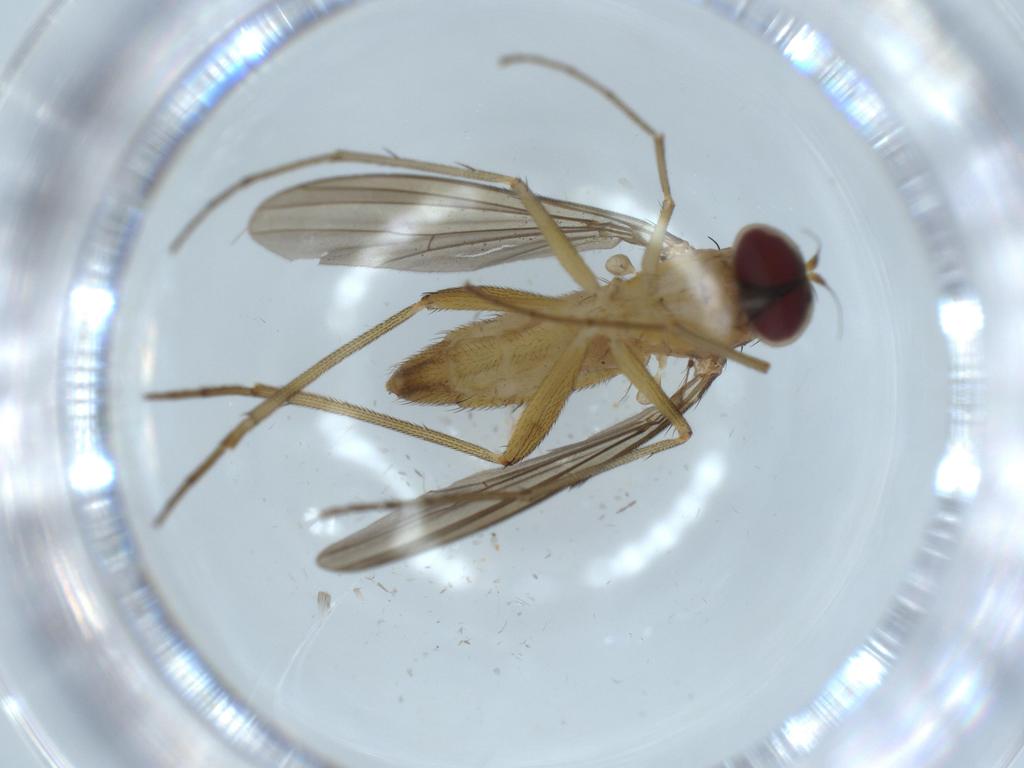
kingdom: Animalia
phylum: Arthropoda
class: Insecta
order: Diptera
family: Dolichopodidae
